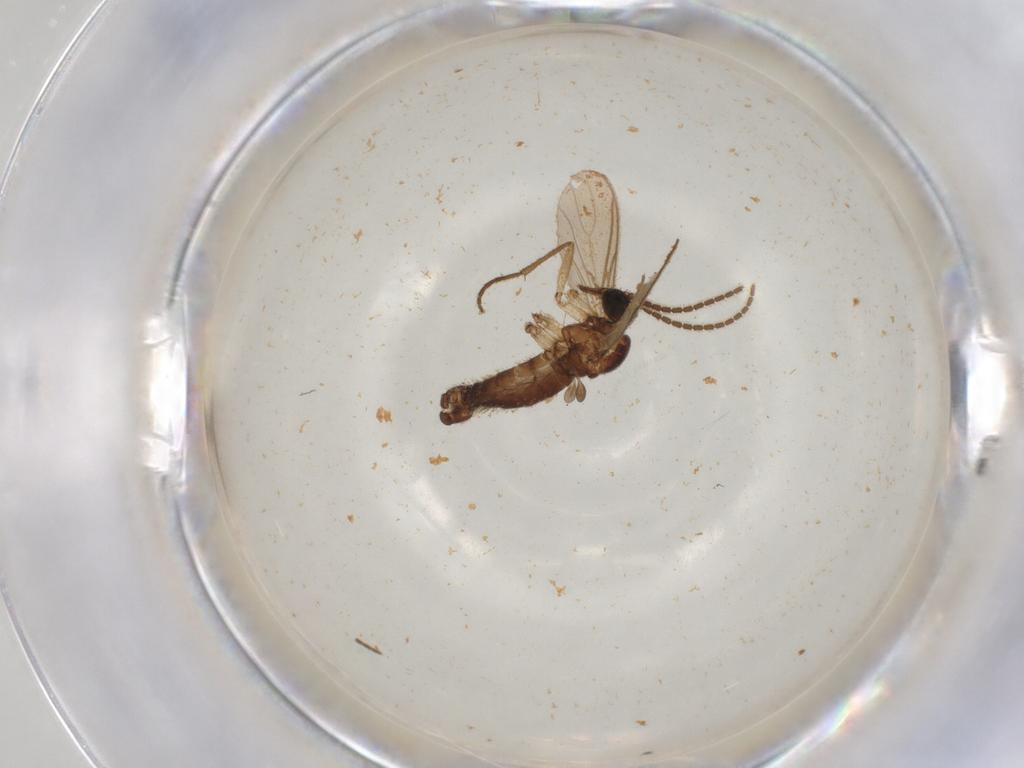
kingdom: Animalia
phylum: Arthropoda
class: Insecta
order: Diptera
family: Sciaridae
